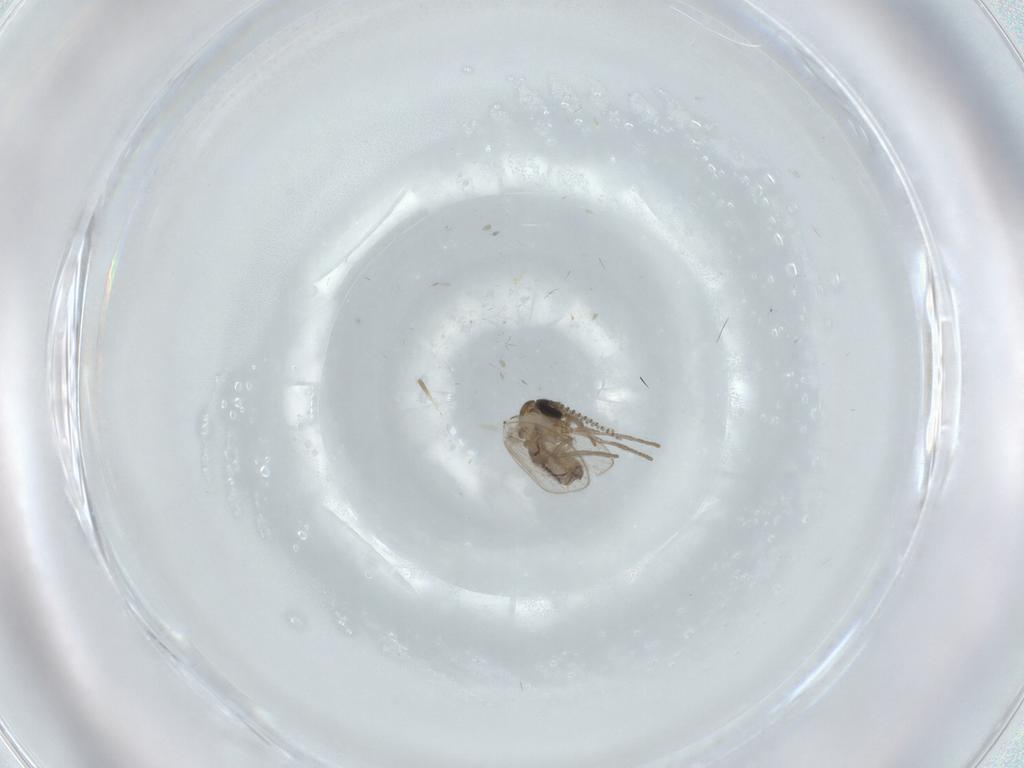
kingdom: Animalia
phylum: Arthropoda
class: Insecta
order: Diptera
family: Psychodidae
